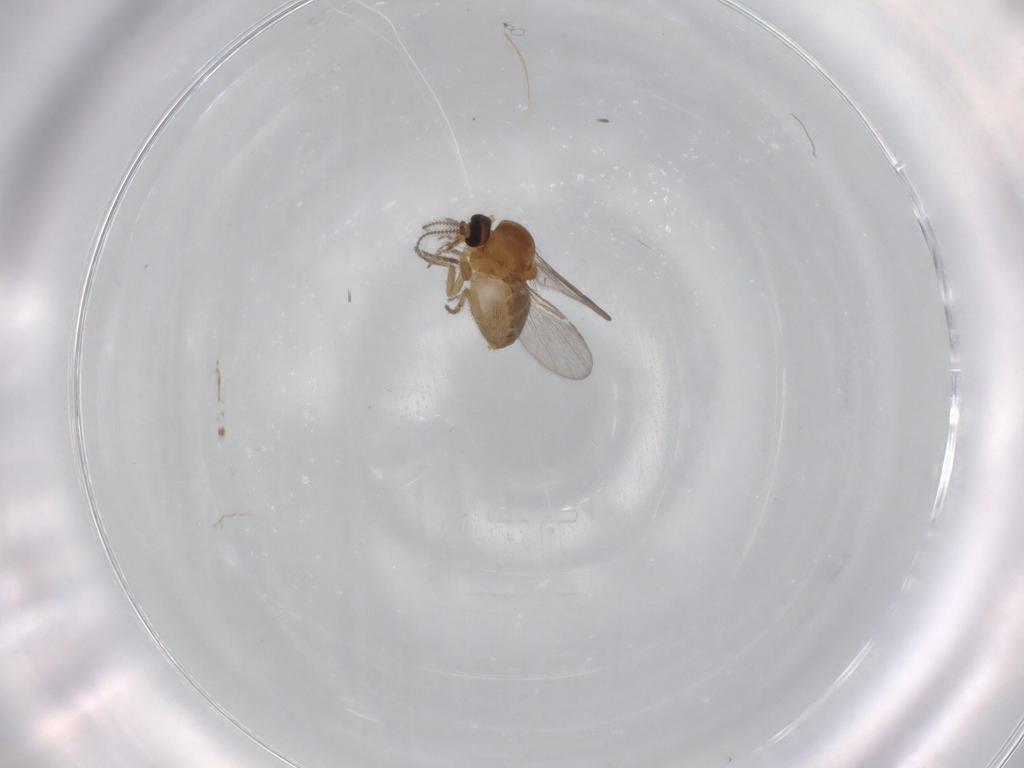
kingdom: Animalia
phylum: Arthropoda
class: Insecta
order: Diptera
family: Ceratopogonidae
